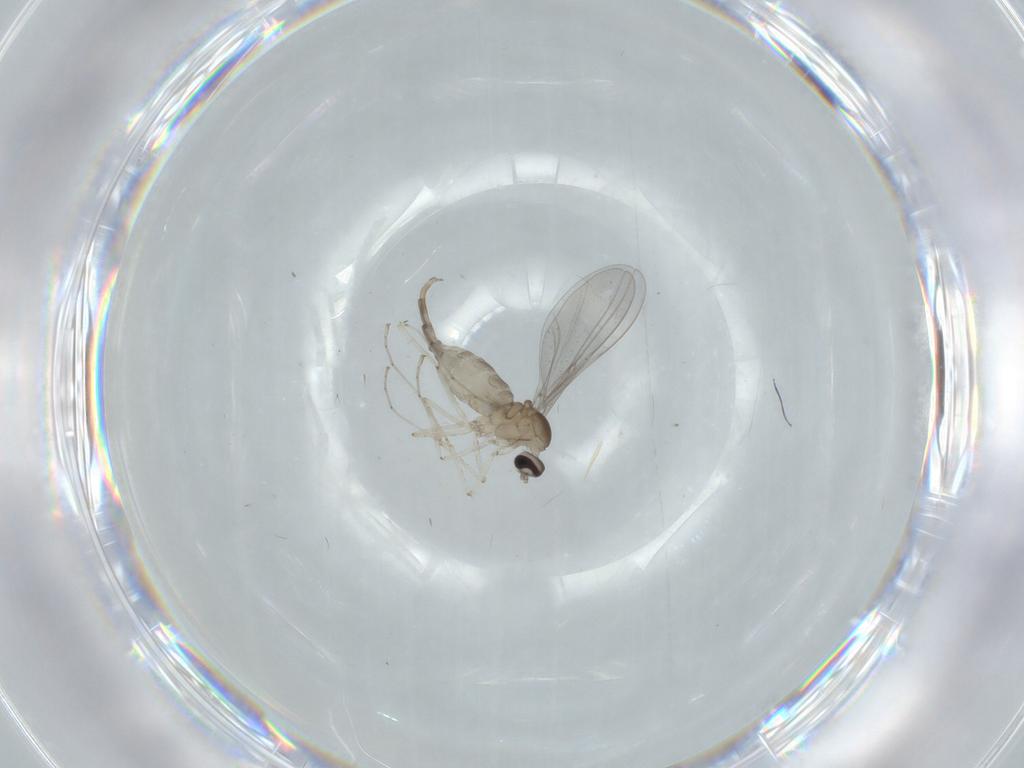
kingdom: Animalia
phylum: Arthropoda
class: Insecta
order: Diptera
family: Cecidomyiidae
